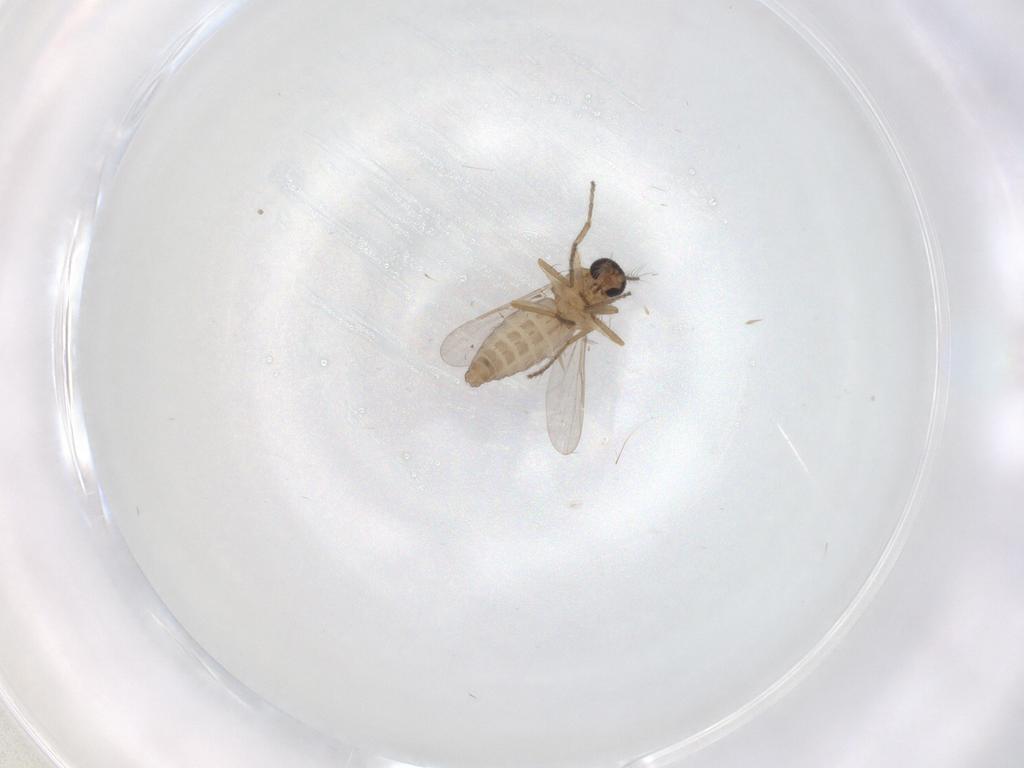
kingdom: Animalia
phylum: Arthropoda
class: Insecta
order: Diptera
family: Ceratopogonidae
